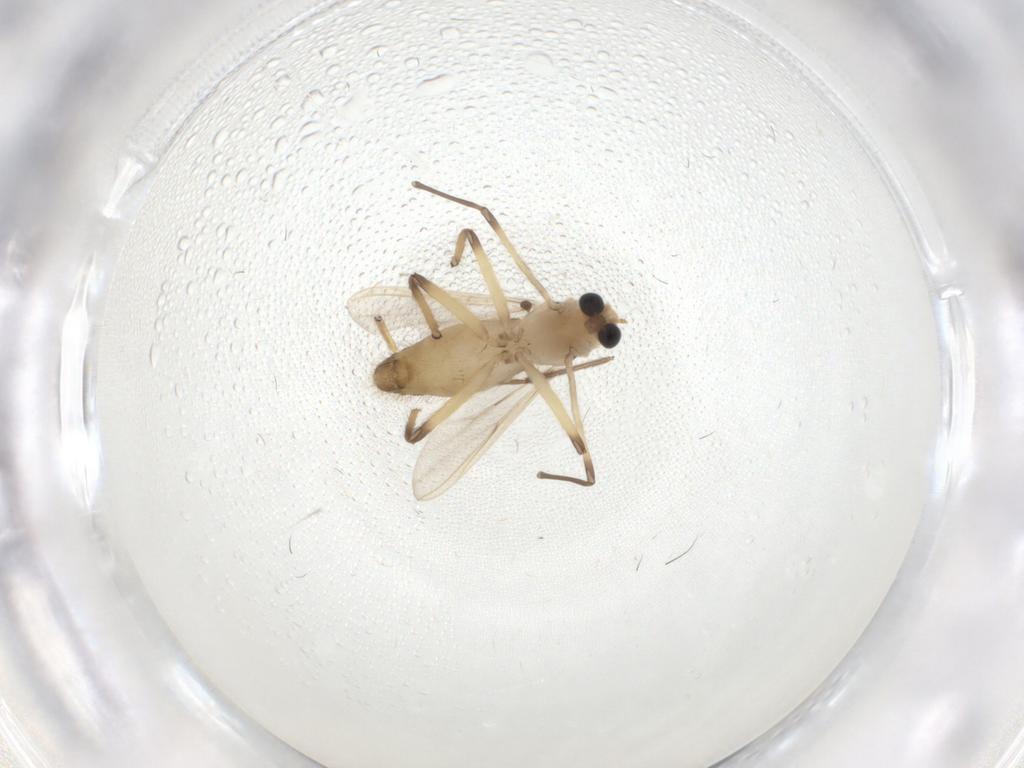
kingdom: Animalia
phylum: Arthropoda
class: Insecta
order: Diptera
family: Chironomidae
